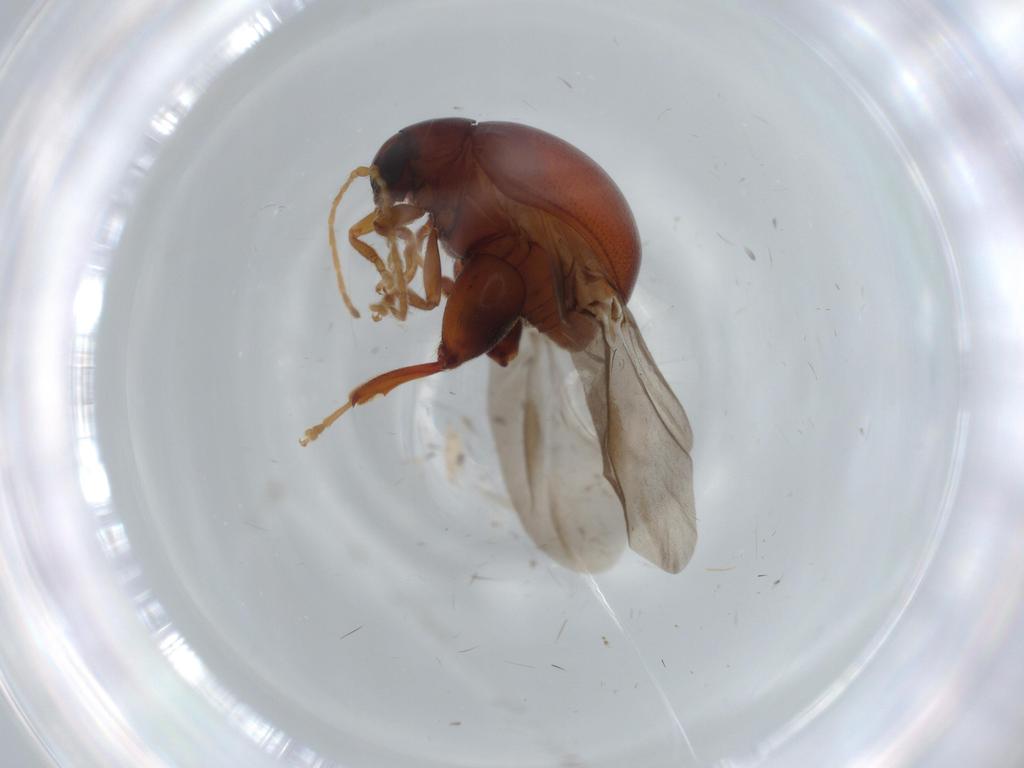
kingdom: Animalia
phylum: Arthropoda
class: Insecta
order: Coleoptera
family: Chrysomelidae
